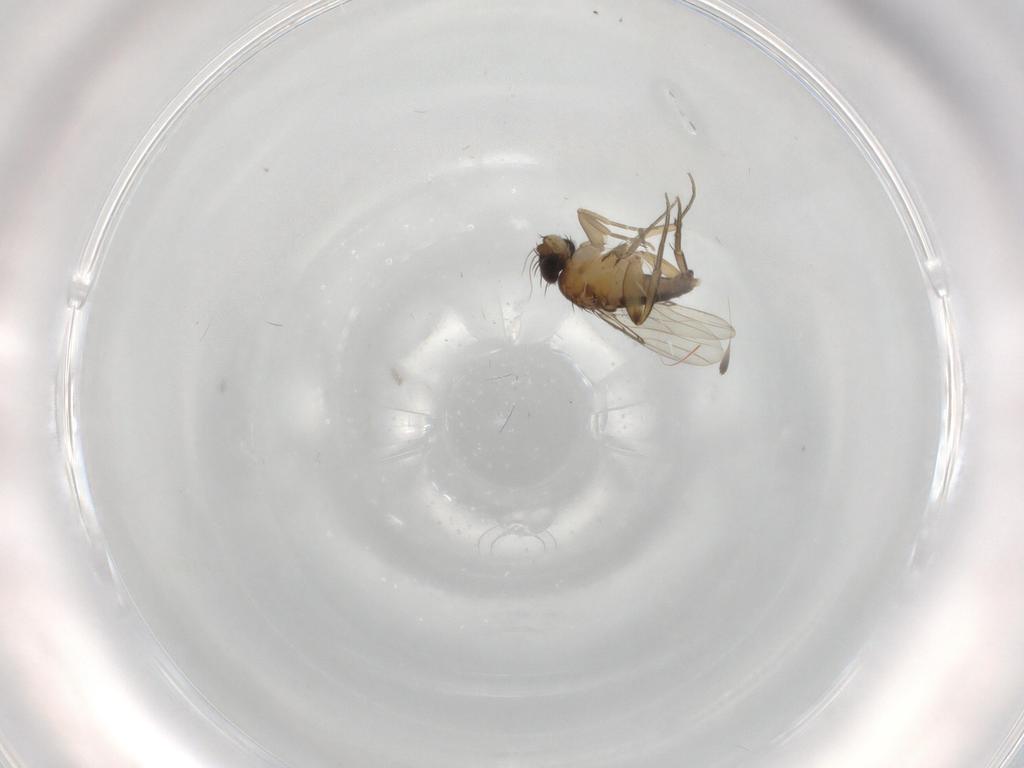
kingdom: Animalia
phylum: Arthropoda
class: Insecta
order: Diptera
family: Phoridae
